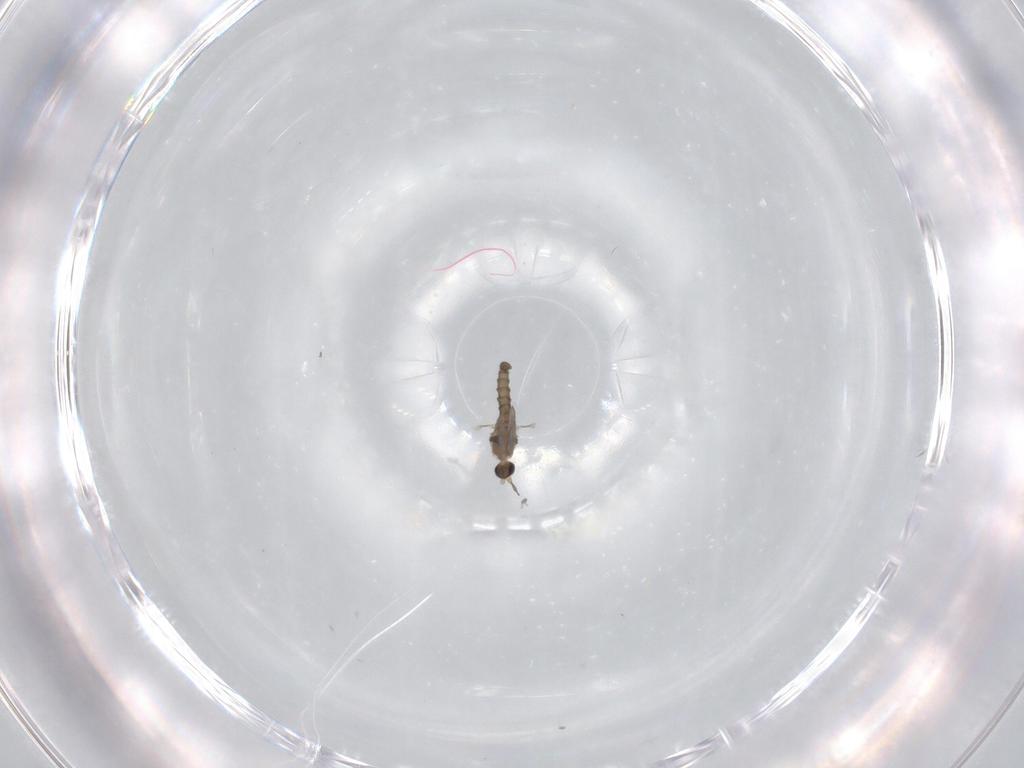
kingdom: Animalia
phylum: Arthropoda
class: Insecta
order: Diptera
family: Cecidomyiidae
